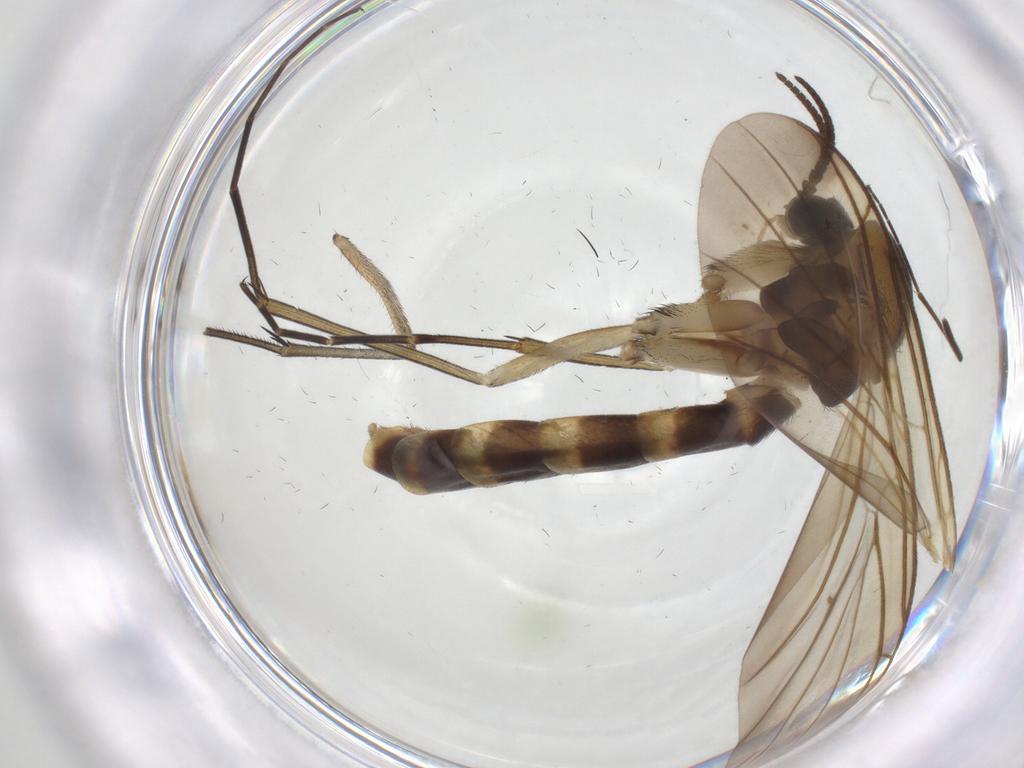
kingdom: Animalia
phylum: Arthropoda
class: Insecta
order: Diptera
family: Keroplatidae
